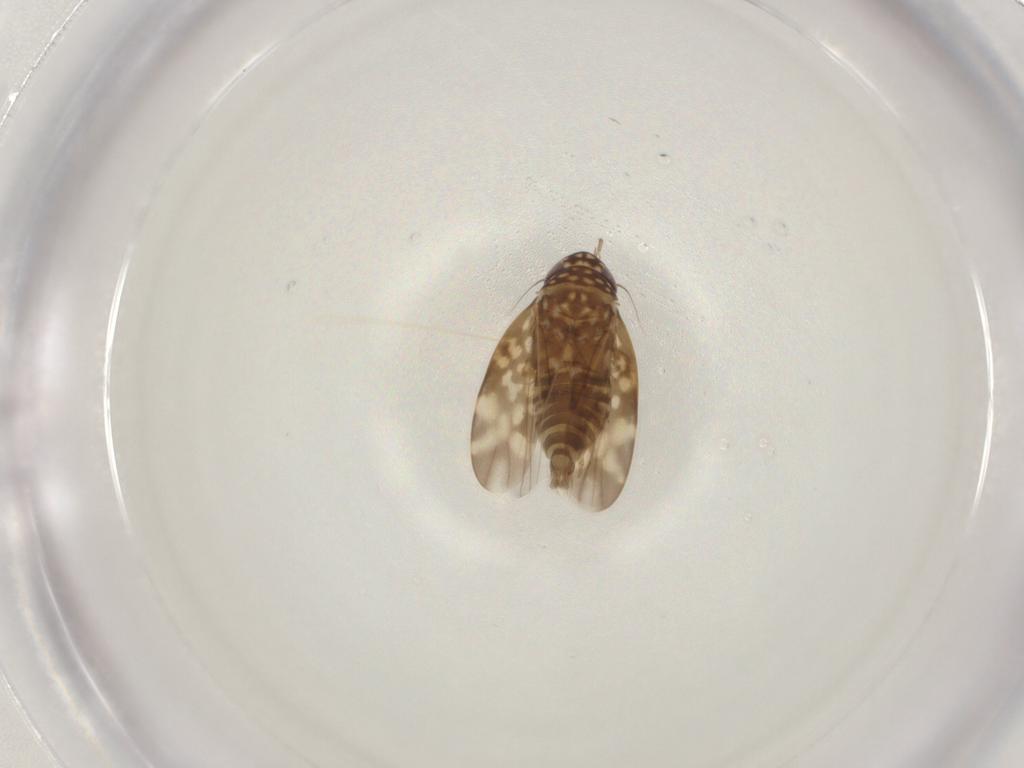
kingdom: Animalia
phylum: Arthropoda
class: Insecta
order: Hemiptera
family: Cicadellidae
